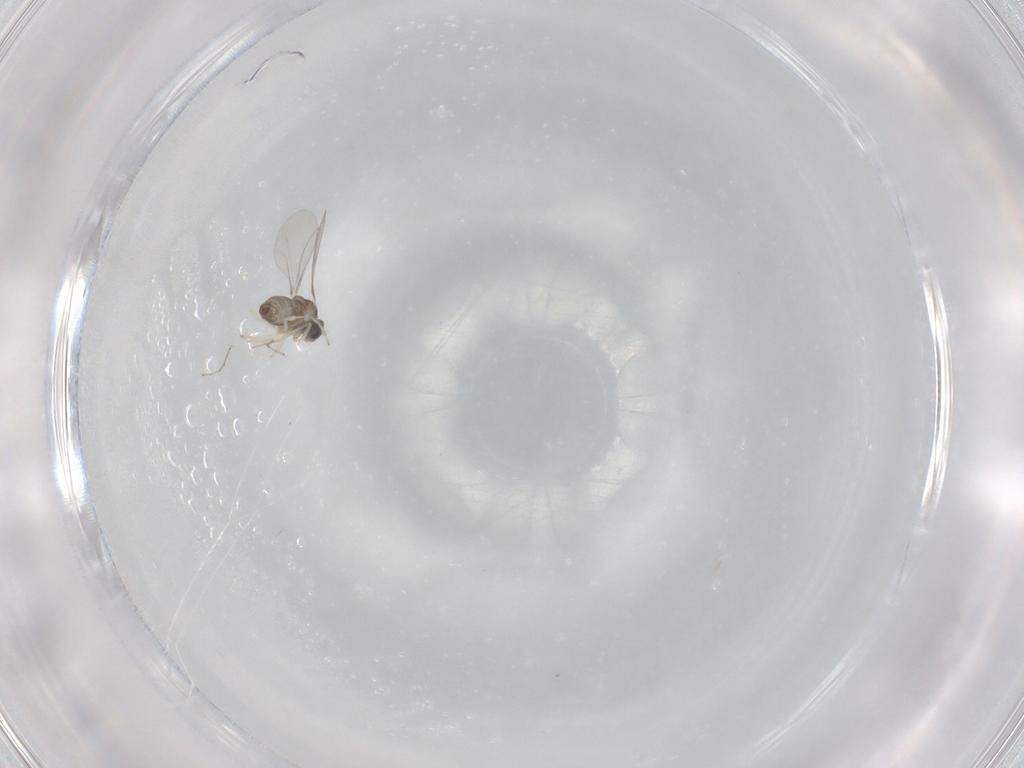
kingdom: Animalia
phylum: Arthropoda
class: Insecta
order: Diptera
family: Cecidomyiidae
